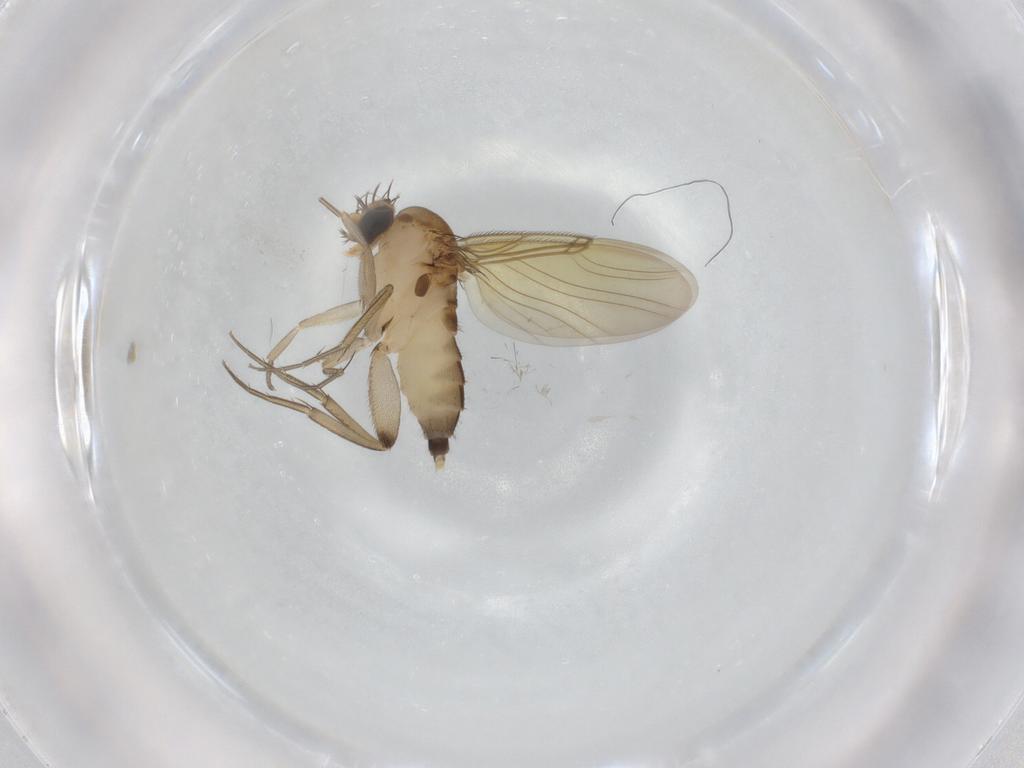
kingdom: Animalia
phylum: Arthropoda
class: Insecta
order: Diptera
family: Phoridae
